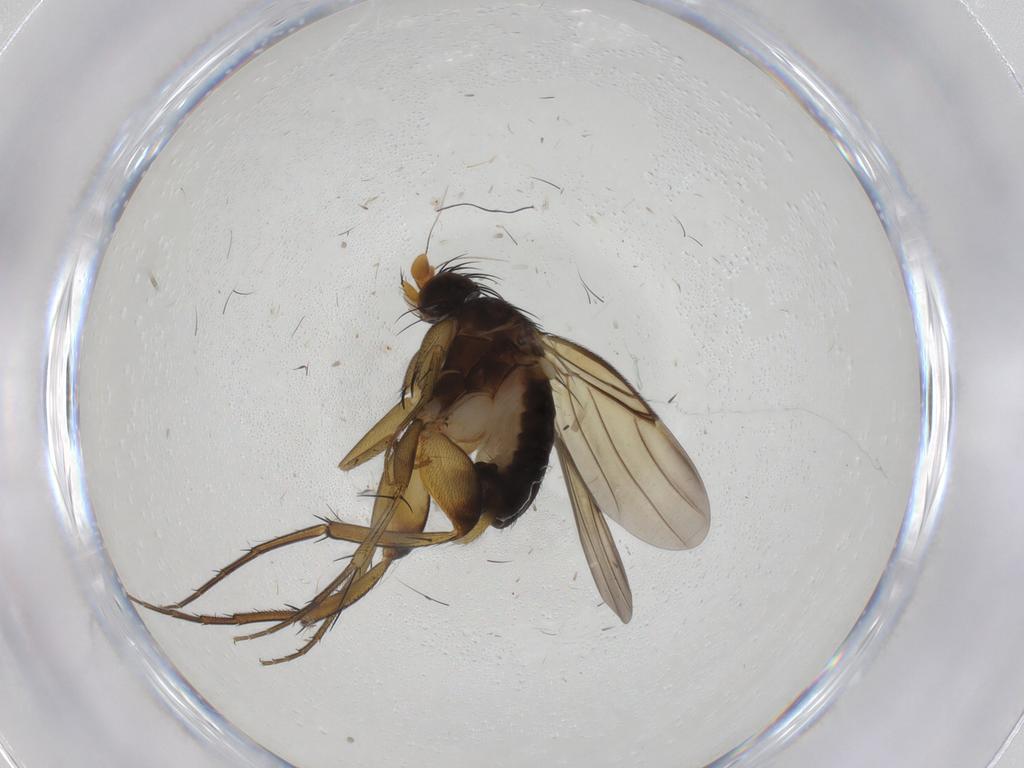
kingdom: Animalia
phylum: Arthropoda
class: Insecta
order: Diptera
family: Phoridae
